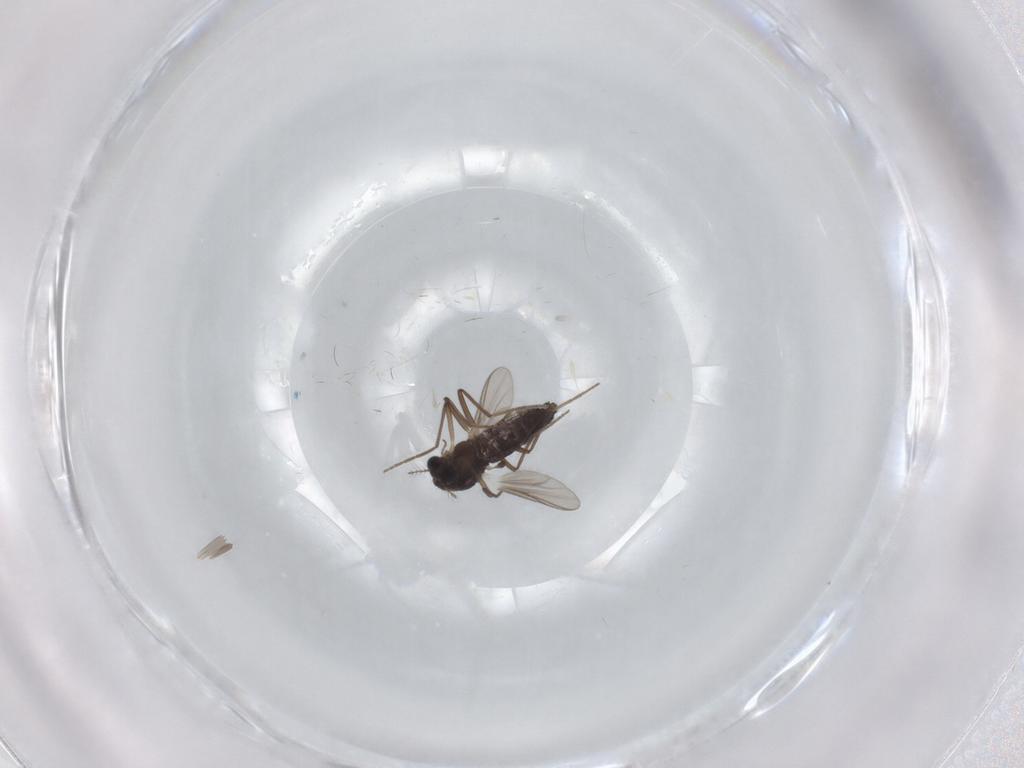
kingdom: Animalia
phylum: Arthropoda
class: Insecta
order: Diptera
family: Chironomidae
